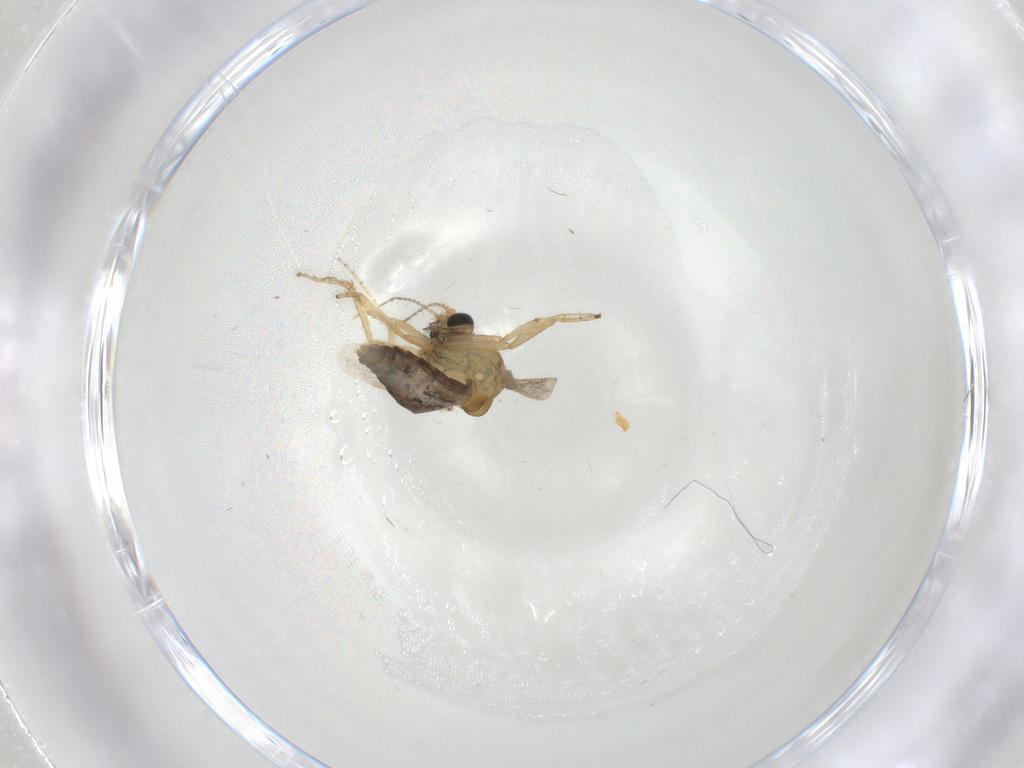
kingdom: Animalia
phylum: Arthropoda
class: Insecta
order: Diptera
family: Ceratopogonidae
